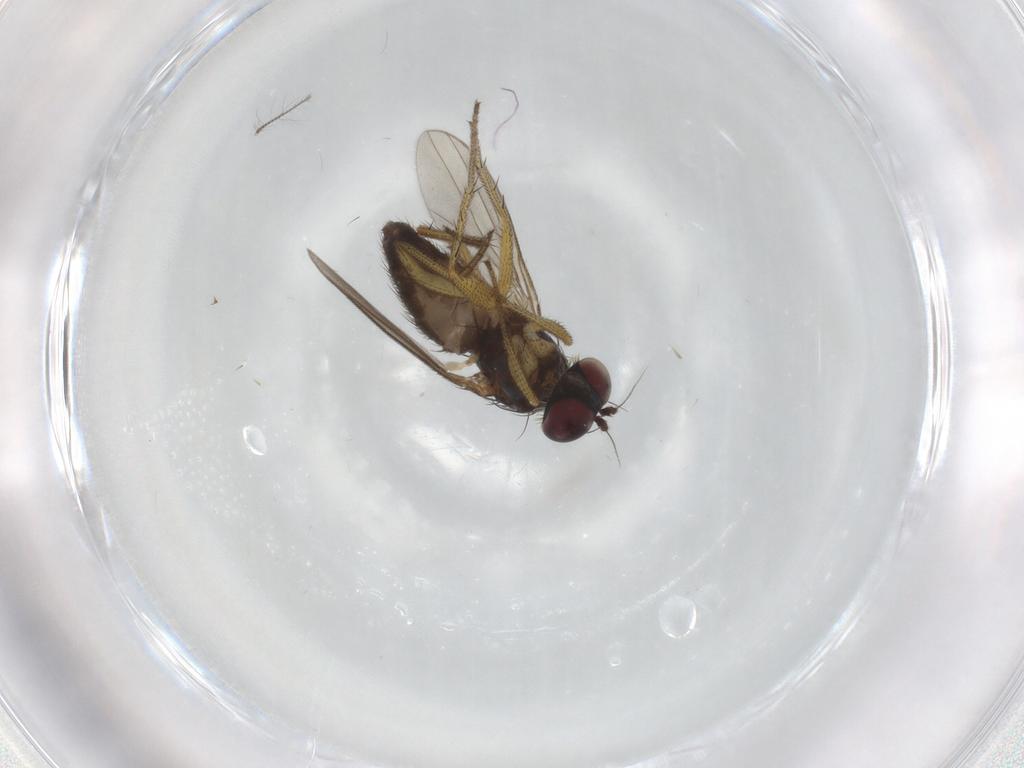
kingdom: Animalia
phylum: Arthropoda
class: Insecta
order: Diptera
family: Dolichopodidae
